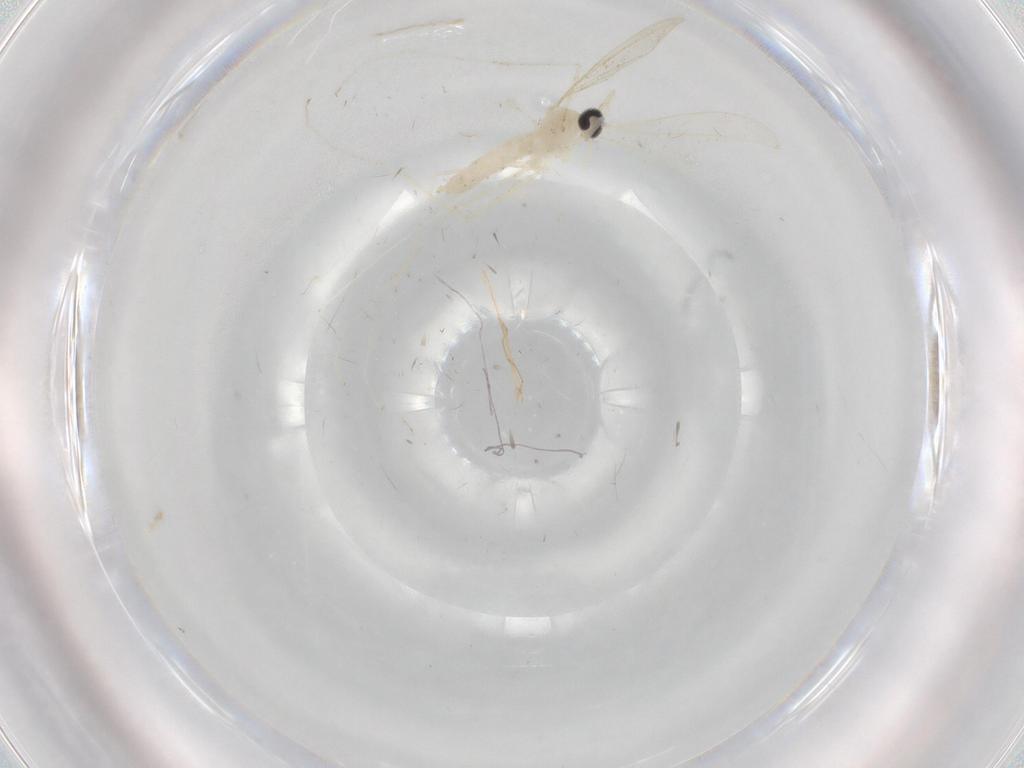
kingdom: Animalia
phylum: Arthropoda
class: Insecta
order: Diptera
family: Cecidomyiidae
